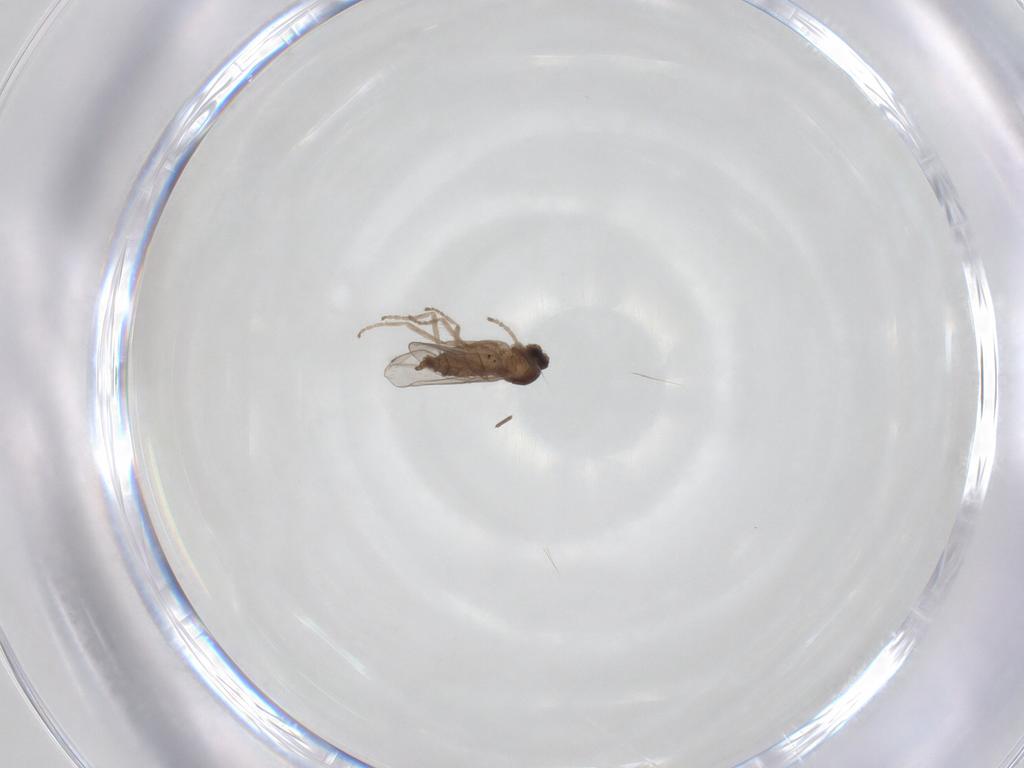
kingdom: Animalia
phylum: Arthropoda
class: Insecta
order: Diptera
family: Cecidomyiidae
